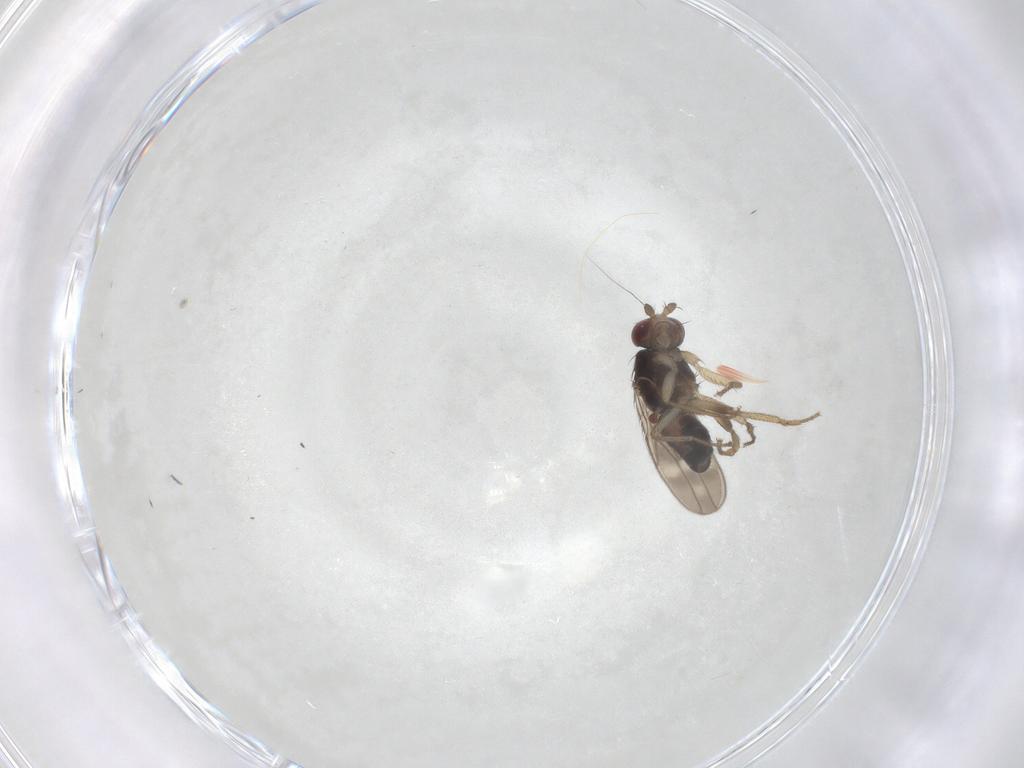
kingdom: Animalia
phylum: Arthropoda
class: Insecta
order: Diptera
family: Sphaeroceridae
